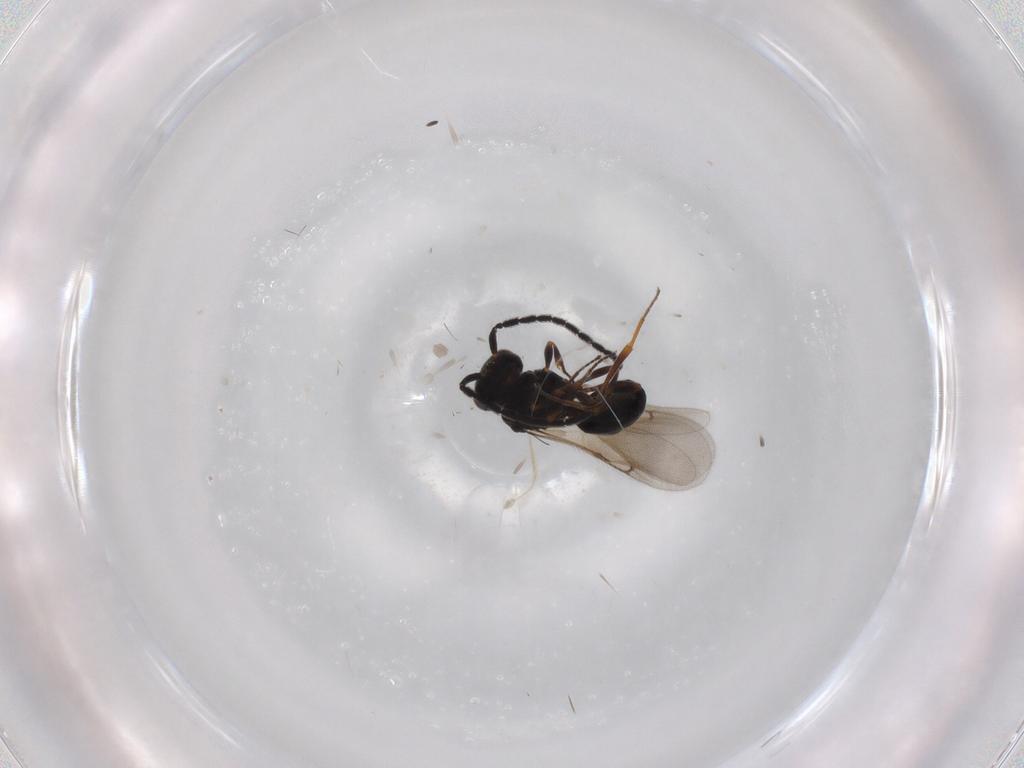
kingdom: Animalia
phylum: Arthropoda
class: Insecta
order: Hymenoptera
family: Scelionidae
